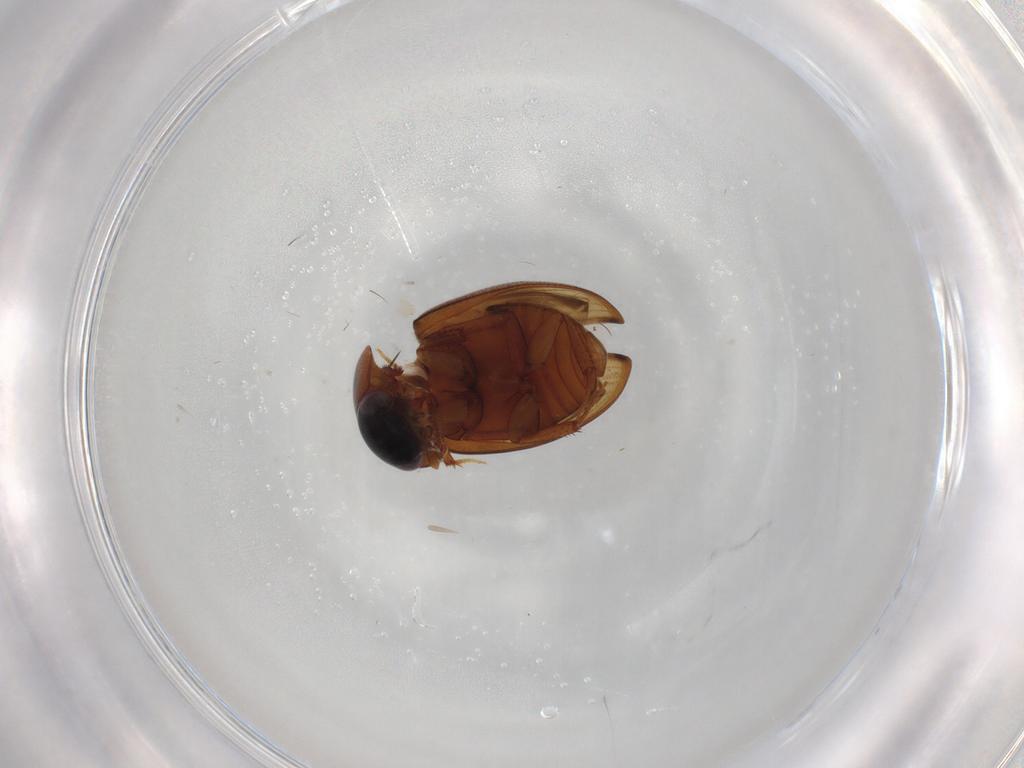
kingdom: Animalia
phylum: Arthropoda
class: Insecta
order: Coleoptera
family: Hydrophilidae
